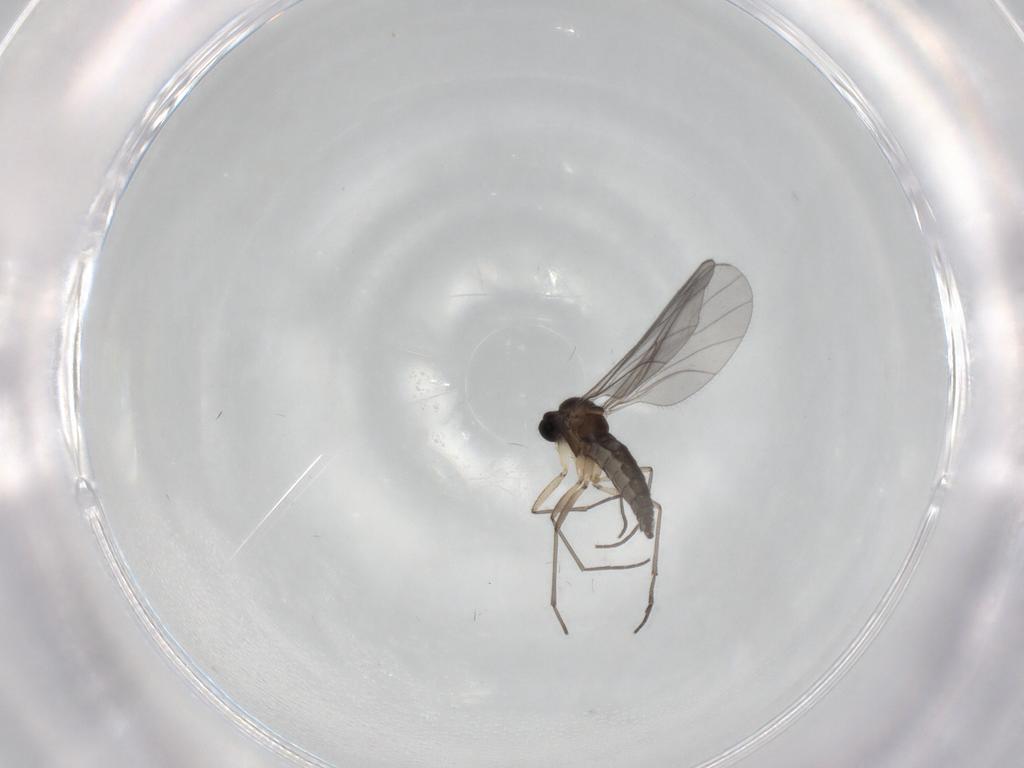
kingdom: Animalia
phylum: Arthropoda
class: Insecta
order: Diptera
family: Sciaridae
